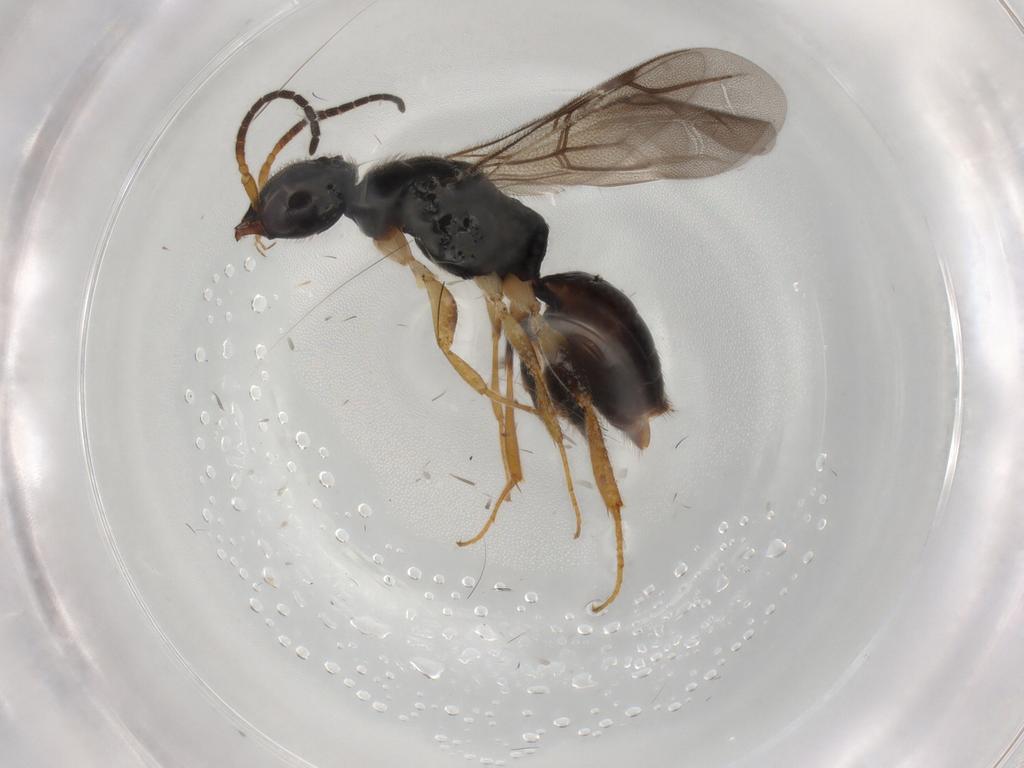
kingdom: Animalia
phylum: Arthropoda
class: Insecta
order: Hymenoptera
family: Bethylidae
